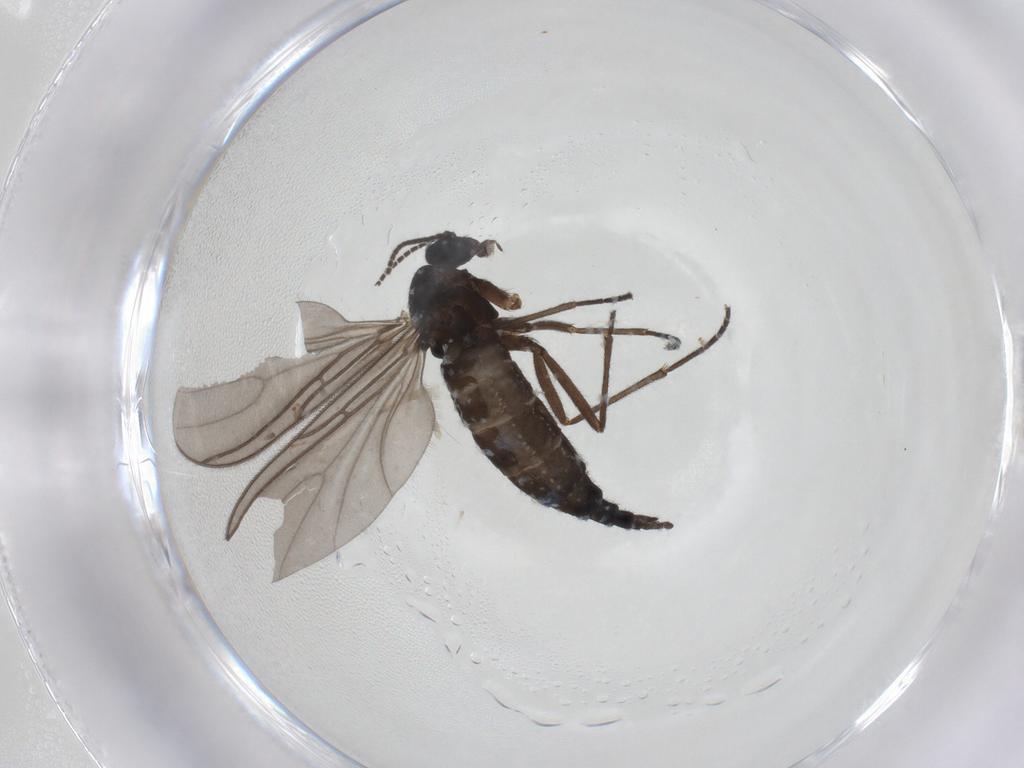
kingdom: Animalia
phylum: Arthropoda
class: Insecta
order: Diptera
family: Sciaridae
